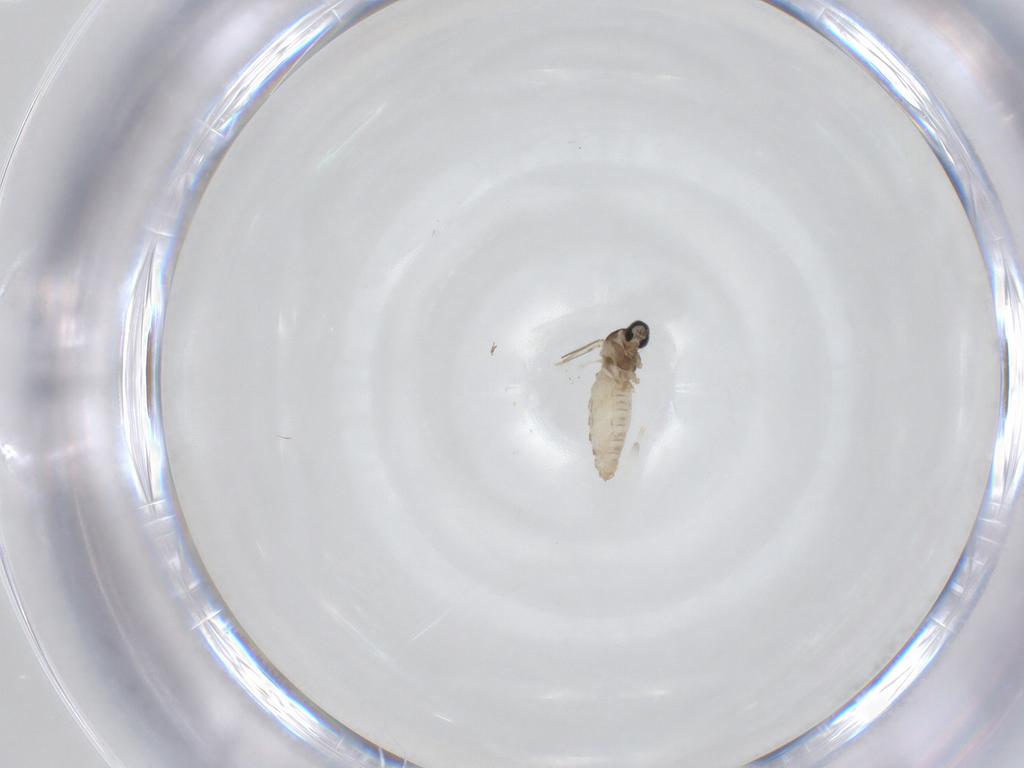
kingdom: Animalia
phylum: Arthropoda
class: Insecta
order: Diptera
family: Cecidomyiidae
